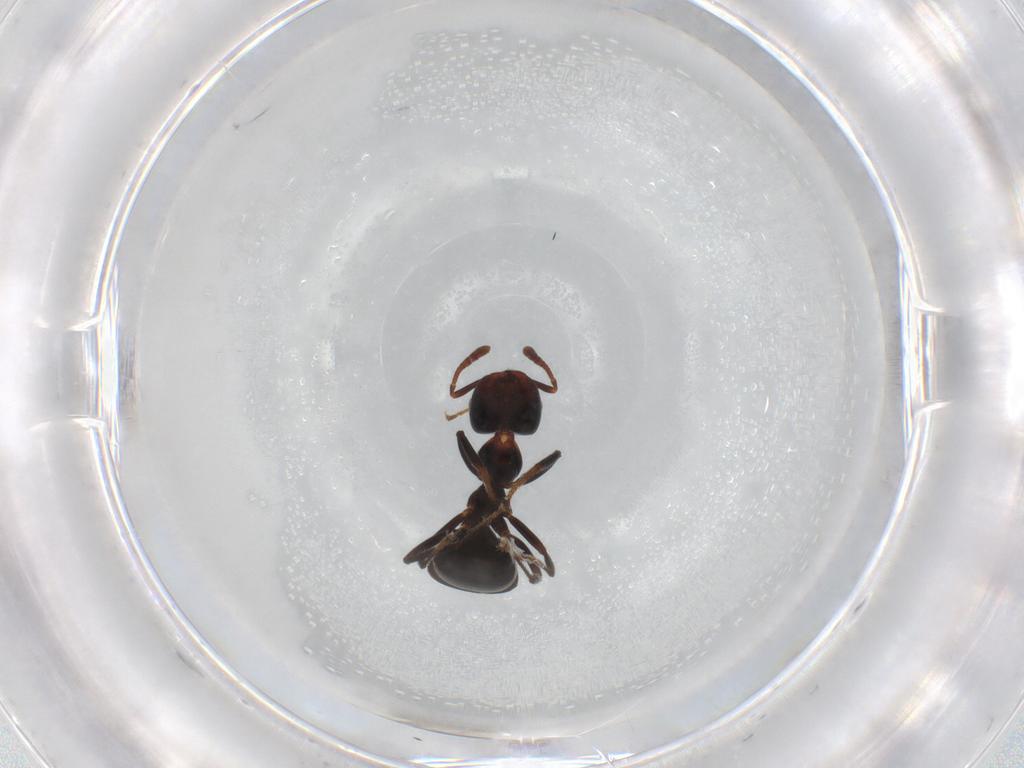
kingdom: Animalia
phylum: Arthropoda
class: Insecta
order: Hymenoptera
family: Formicidae
